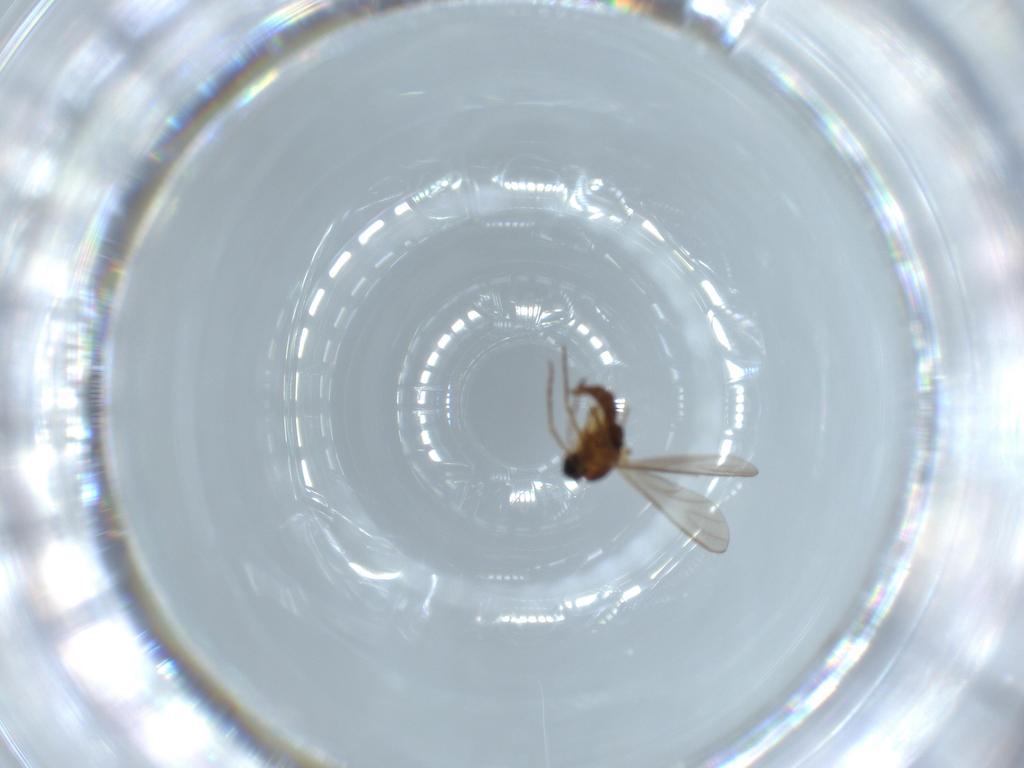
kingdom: Animalia
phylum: Arthropoda
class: Insecta
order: Diptera
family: Sciaridae
